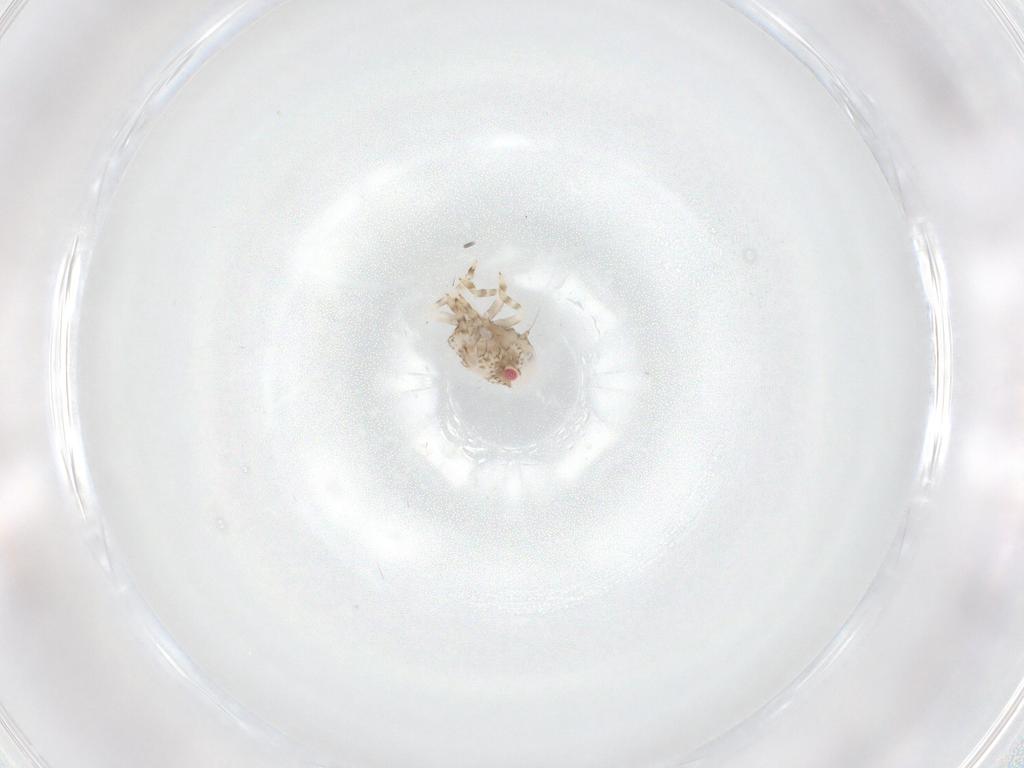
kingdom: Animalia
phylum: Arthropoda
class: Insecta
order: Hemiptera
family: Acanaloniidae
